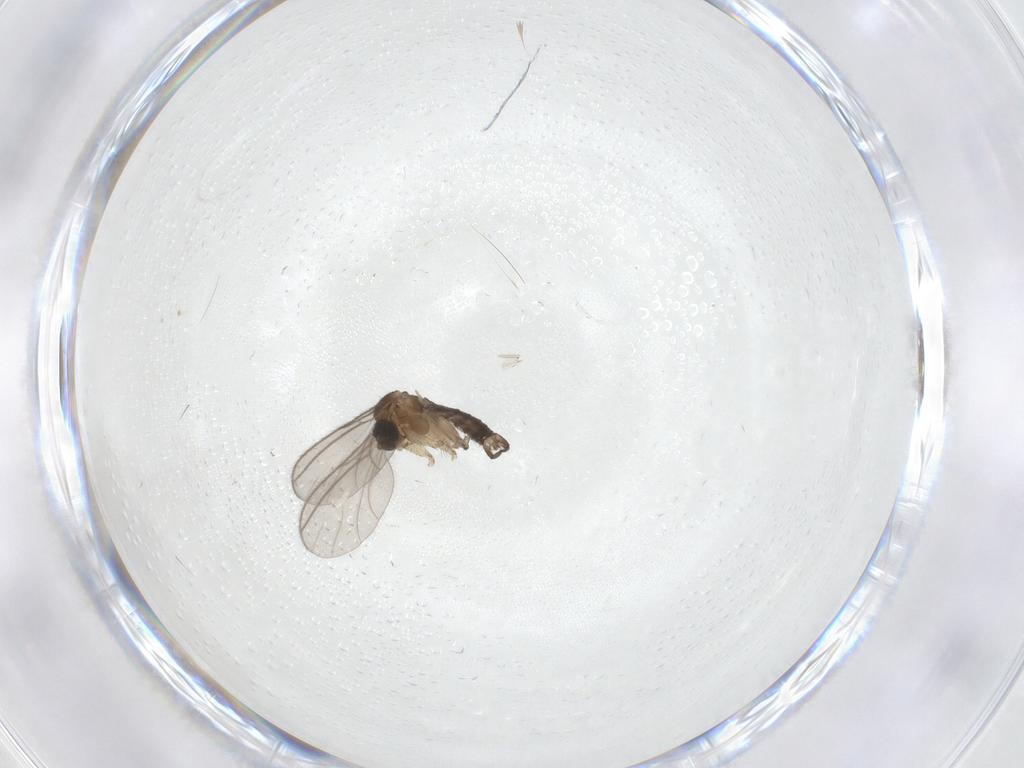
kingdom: Animalia
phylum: Arthropoda
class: Insecta
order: Diptera
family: Sciaridae
